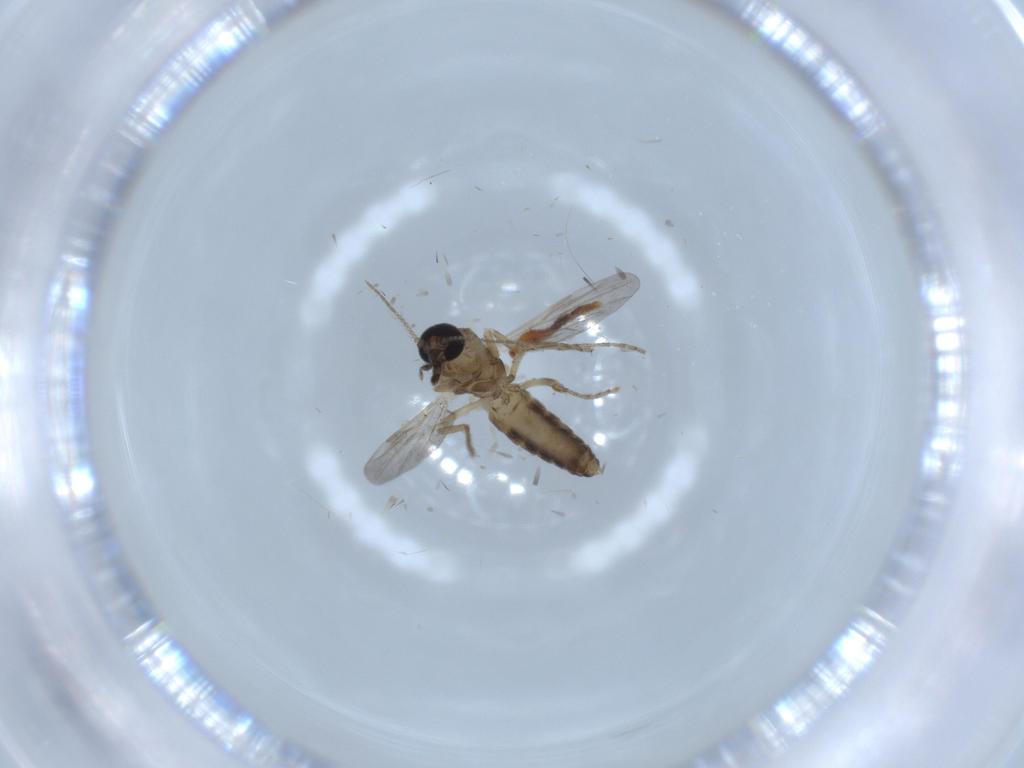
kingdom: Animalia
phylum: Arthropoda
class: Insecta
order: Diptera
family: Ceratopogonidae
